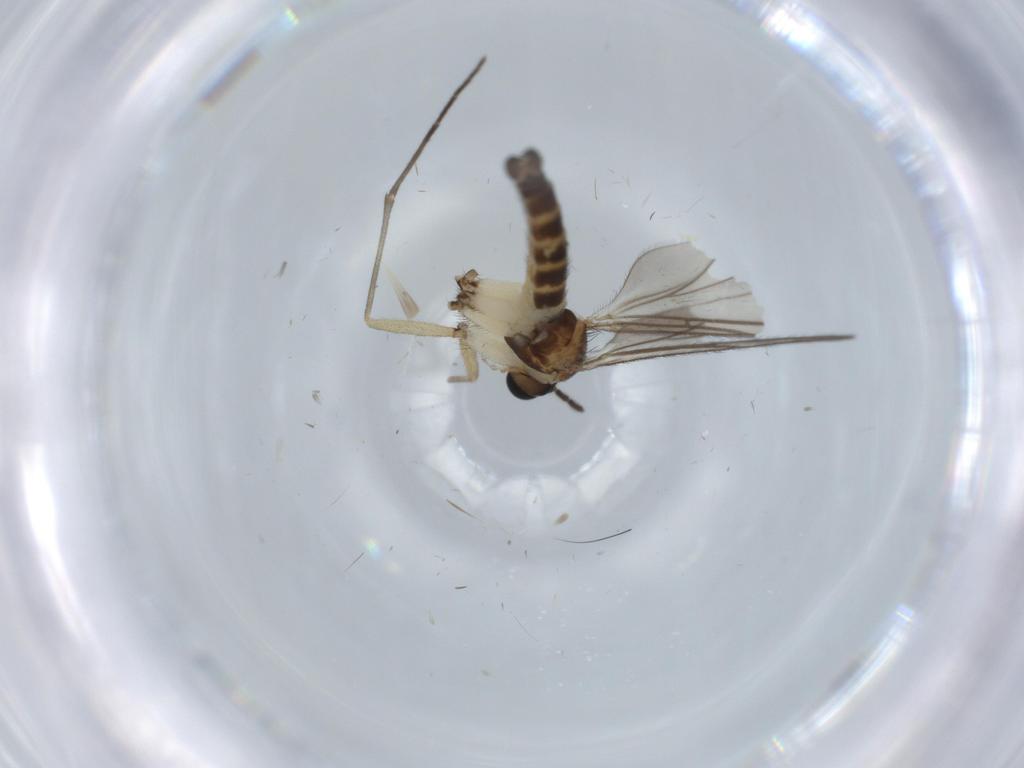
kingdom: Animalia
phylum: Arthropoda
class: Insecta
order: Diptera
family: Sciaridae
